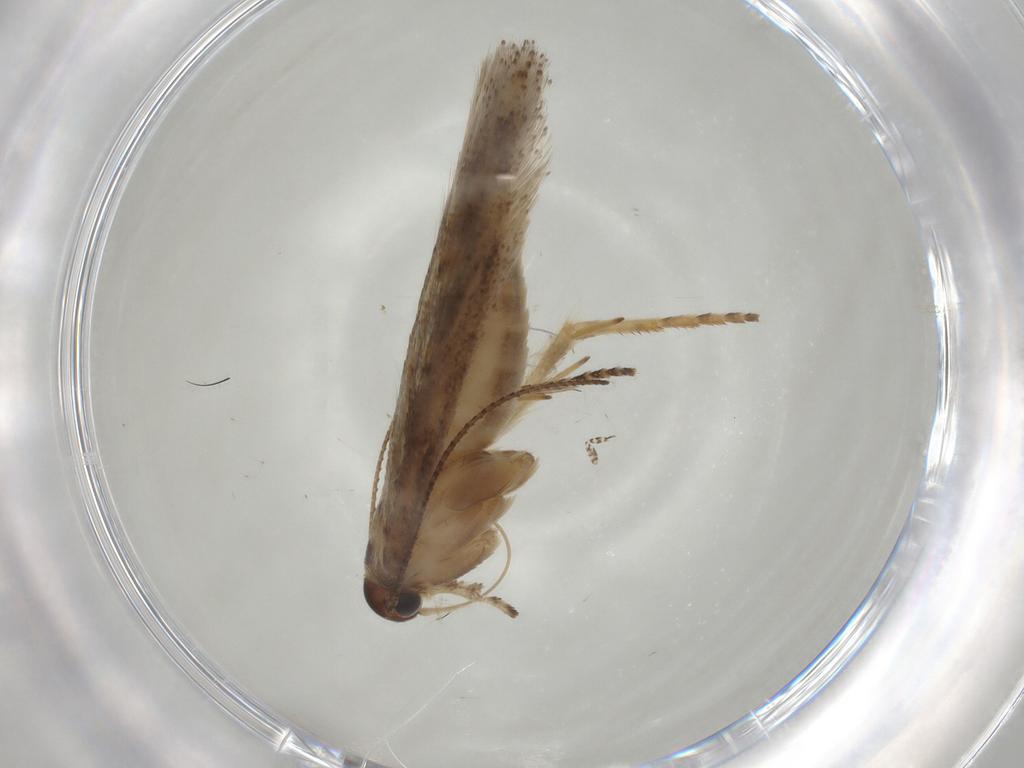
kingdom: Animalia
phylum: Arthropoda
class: Insecta
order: Lepidoptera
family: Gelechiidae
